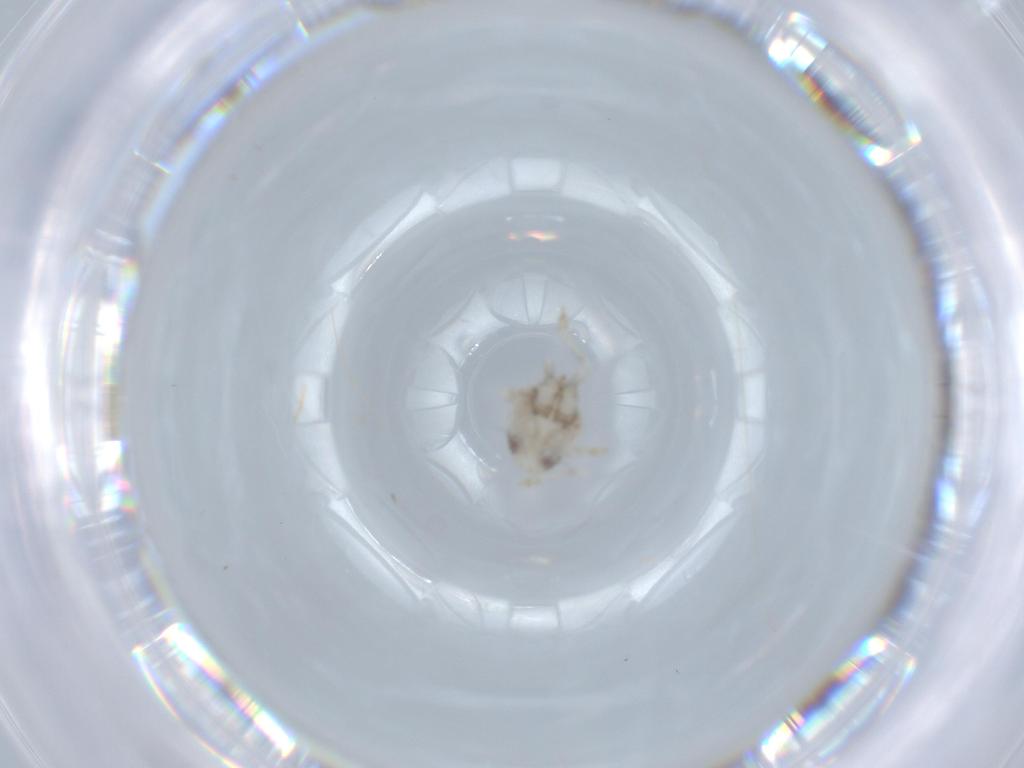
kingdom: Animalia
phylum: Arthropoda
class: Insecta
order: Hemiptera
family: Acanaloniidae
